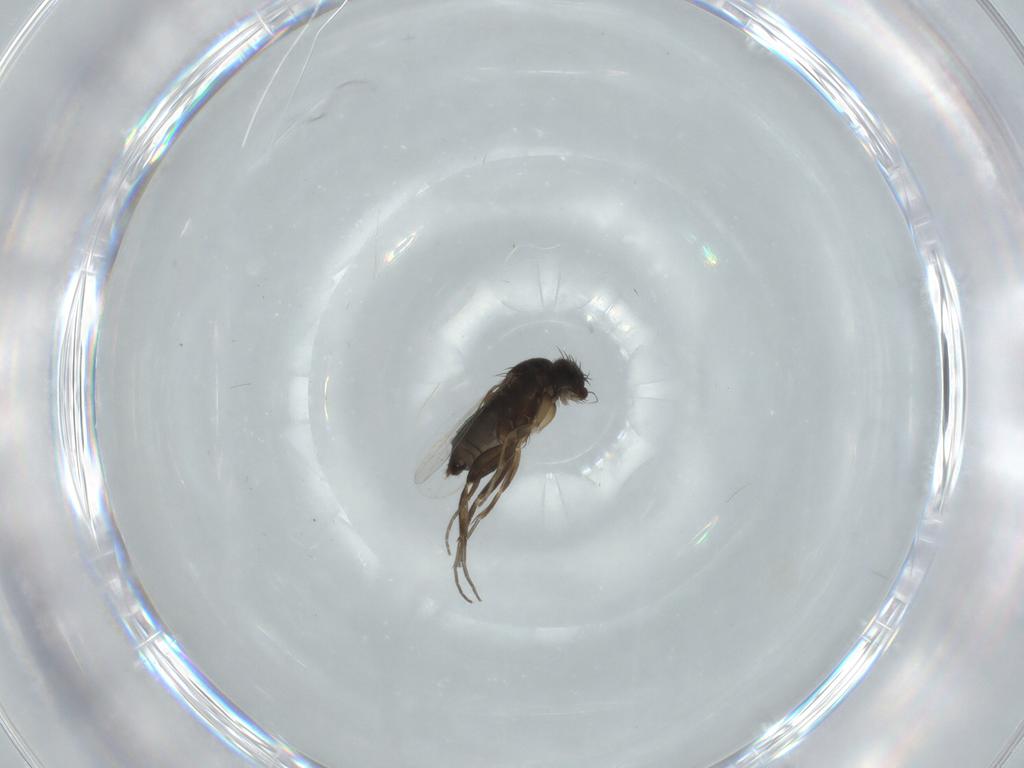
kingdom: Animalia
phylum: Arthropoda
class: Insecta
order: Diptera
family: Phoridae
